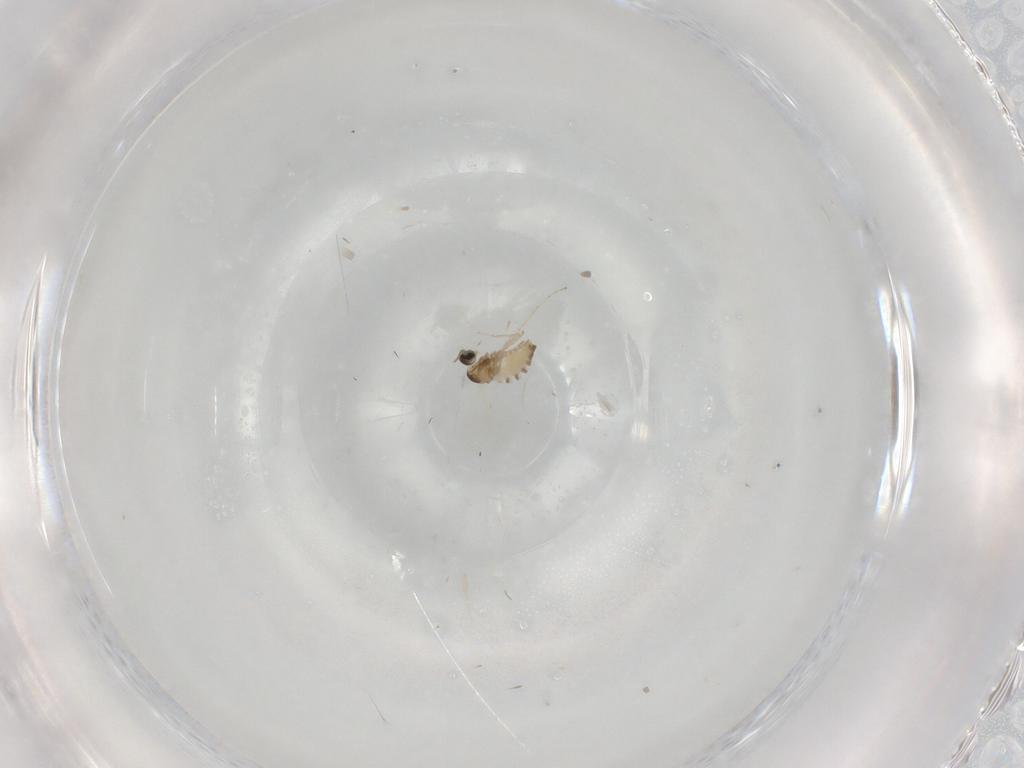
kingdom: Animalia
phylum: Arthropoda
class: Insecta
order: Diptera
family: Cecidomyiidae
